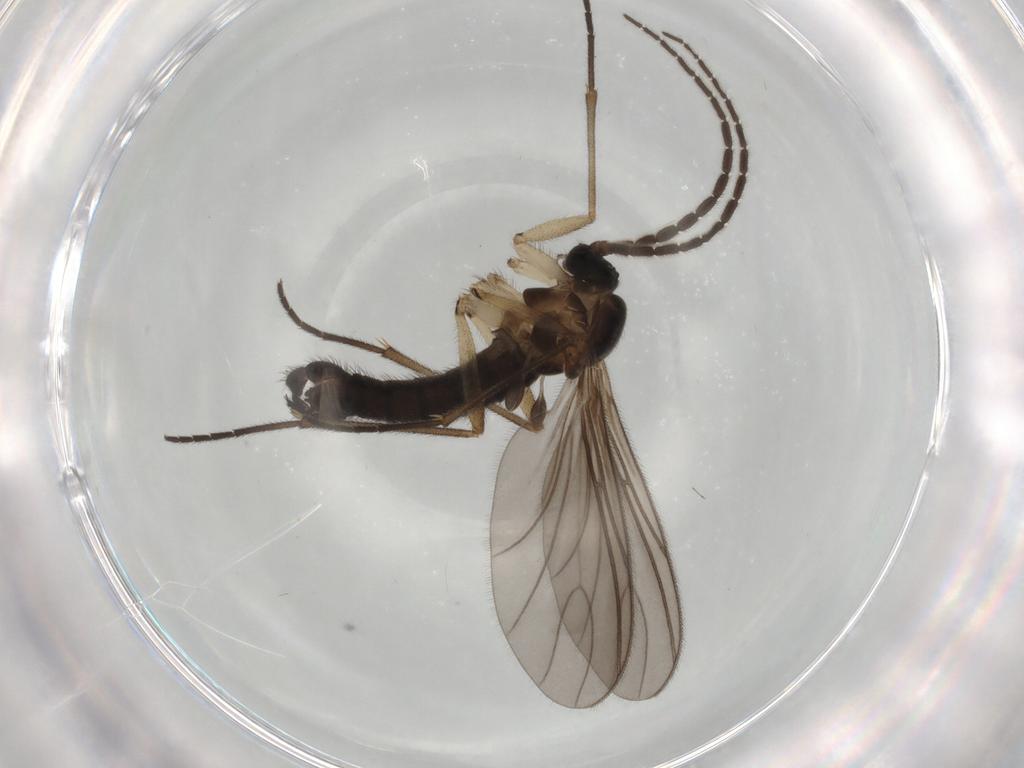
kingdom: Animalia
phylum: Arthropoda
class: Insecta
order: Diptera
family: Sciaridae
